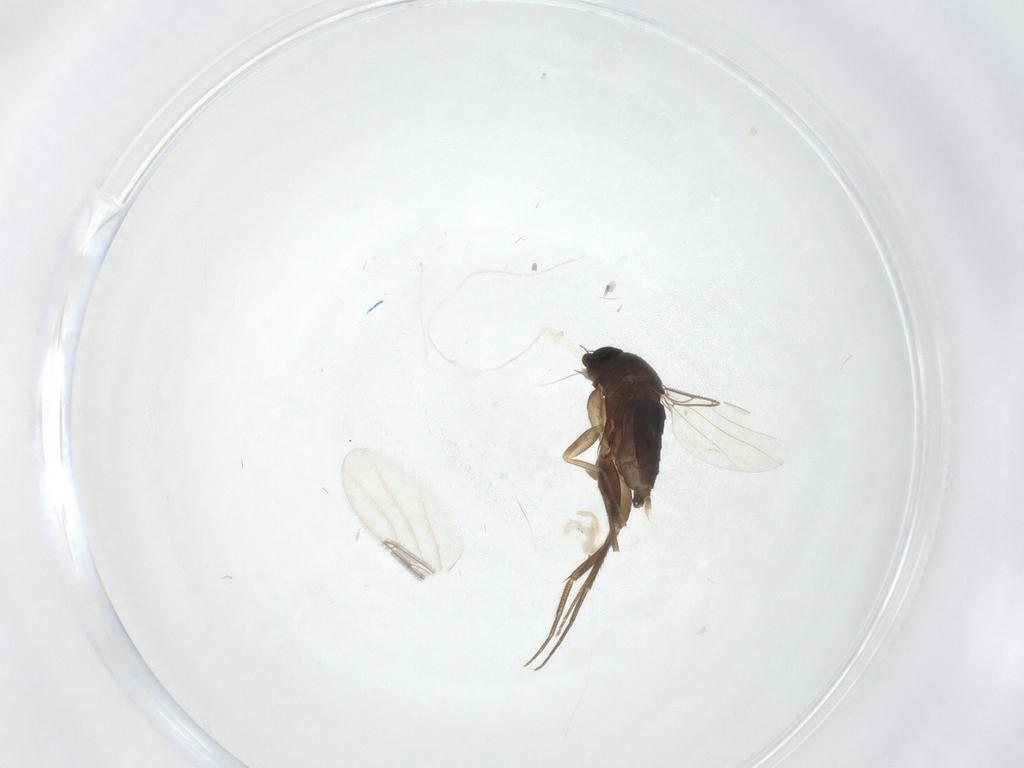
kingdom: Animalia
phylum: Arthropoda
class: Insecta
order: Diptera
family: Phoridae
